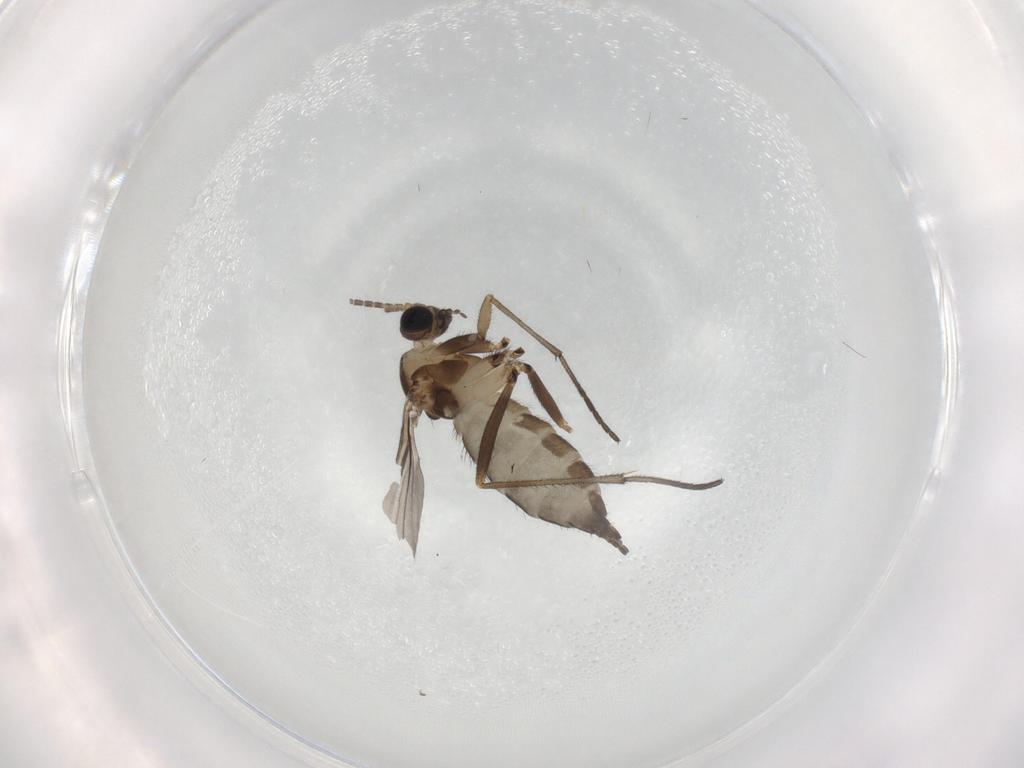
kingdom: Animalia
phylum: Arthropoda
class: Insecta
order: Diptera
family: Sciaridae
